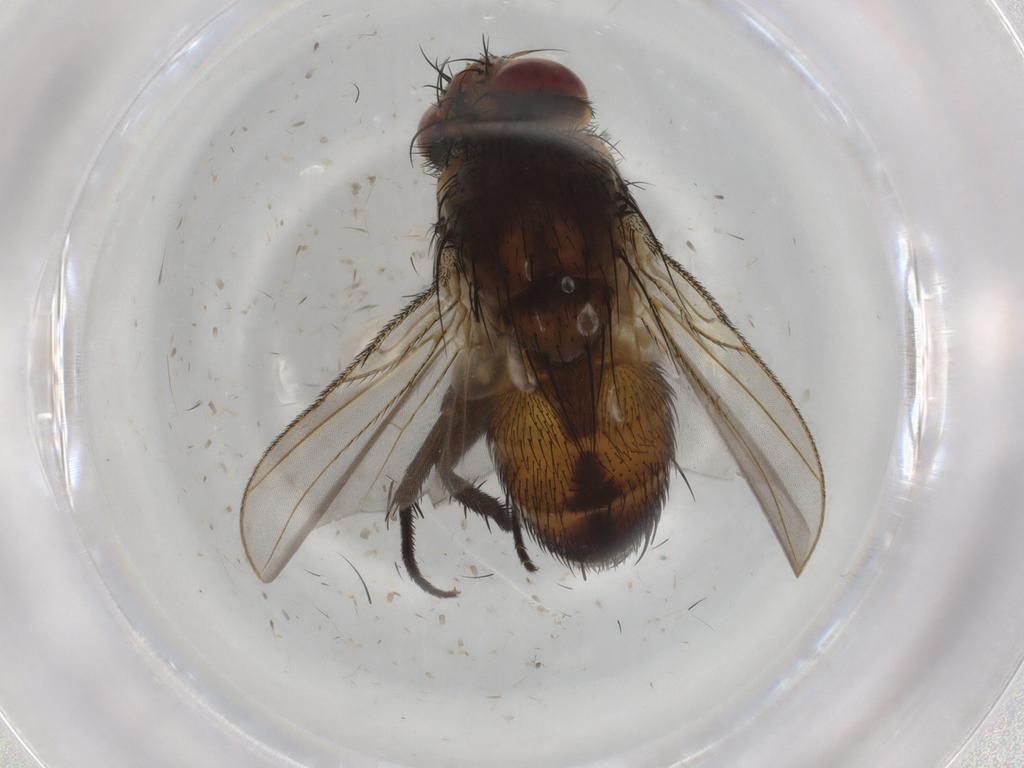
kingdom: Animalia
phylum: Arthropoda
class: Insecta
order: Diptera
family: Tachinidae
